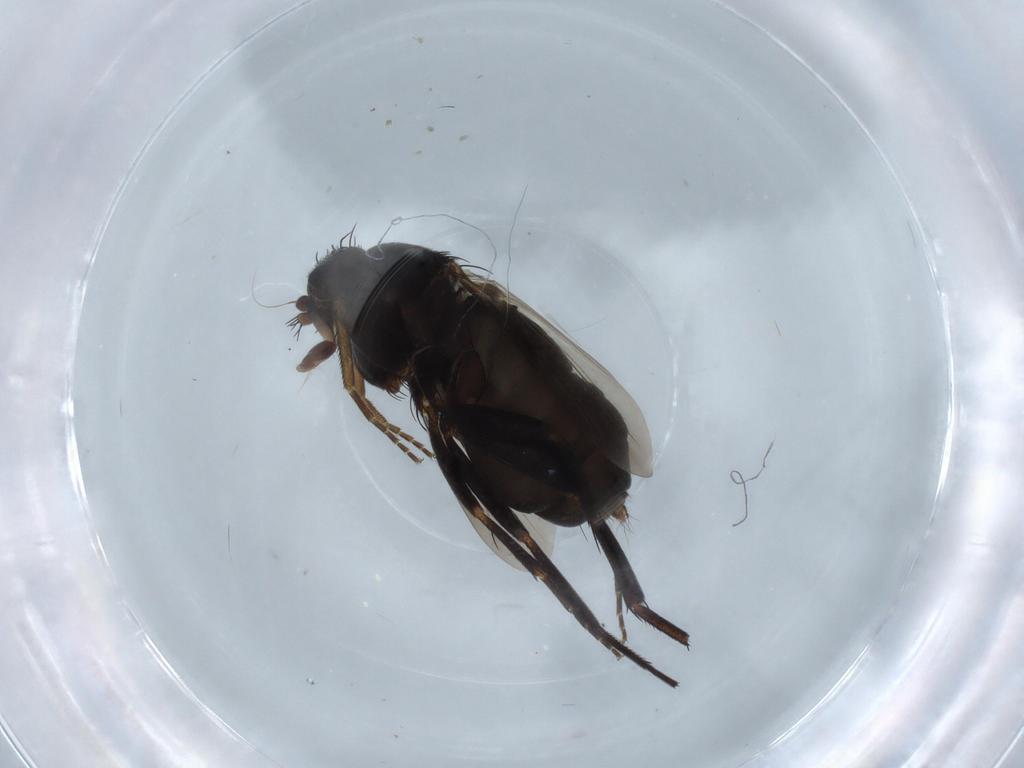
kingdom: Animalia
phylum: Arthropoda
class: Insecta
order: Diptera
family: Phoridae
